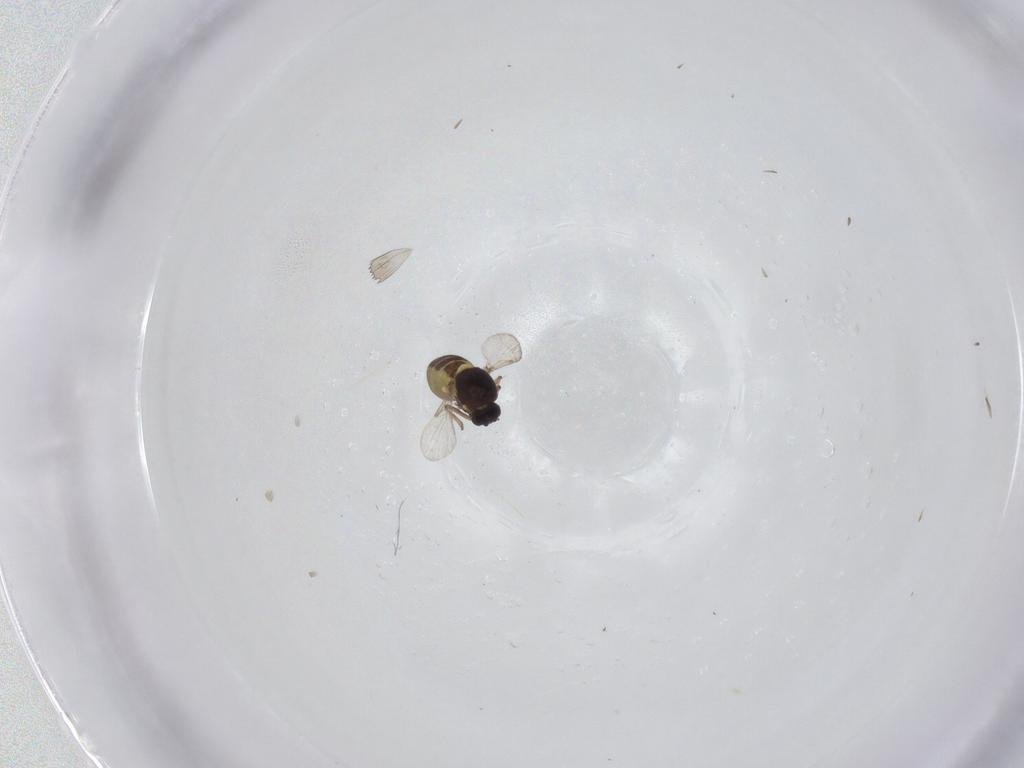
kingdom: Animalia
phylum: Arthropoda
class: Insecta
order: Diptera
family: Ceratopogonidae
